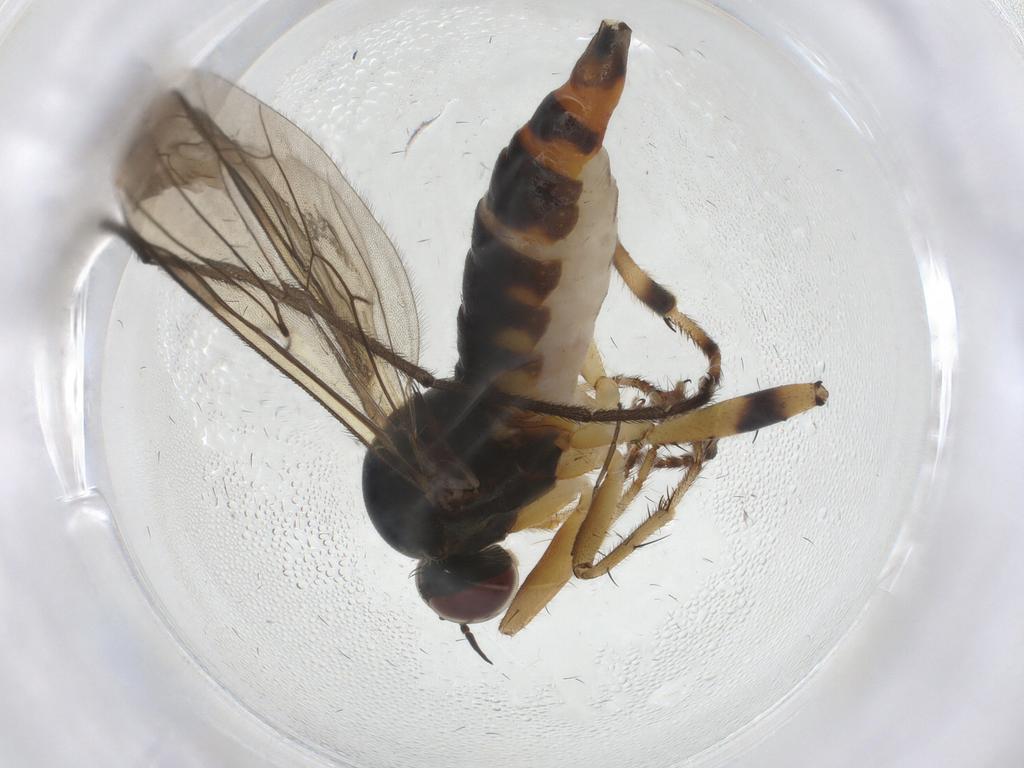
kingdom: Animalia
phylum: Arthropoda
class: Insecta
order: Diptera
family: Hybotidae
